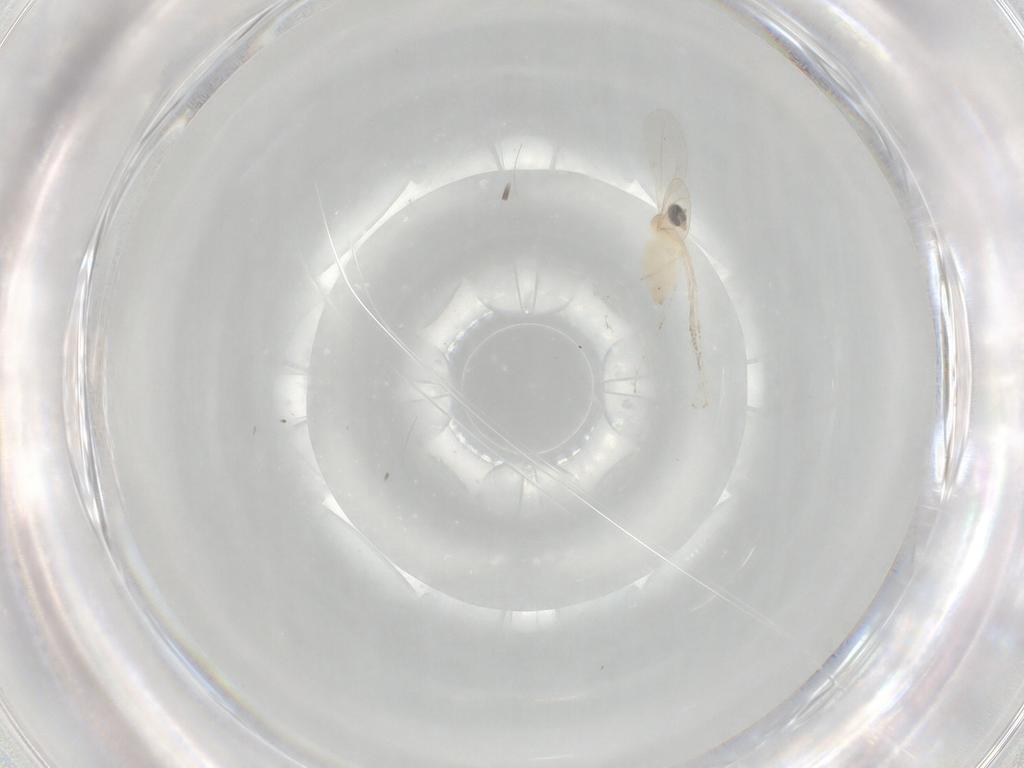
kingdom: Animalia
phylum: Arthropoda
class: Insecta
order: Diptera
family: Cecidomyiidae
